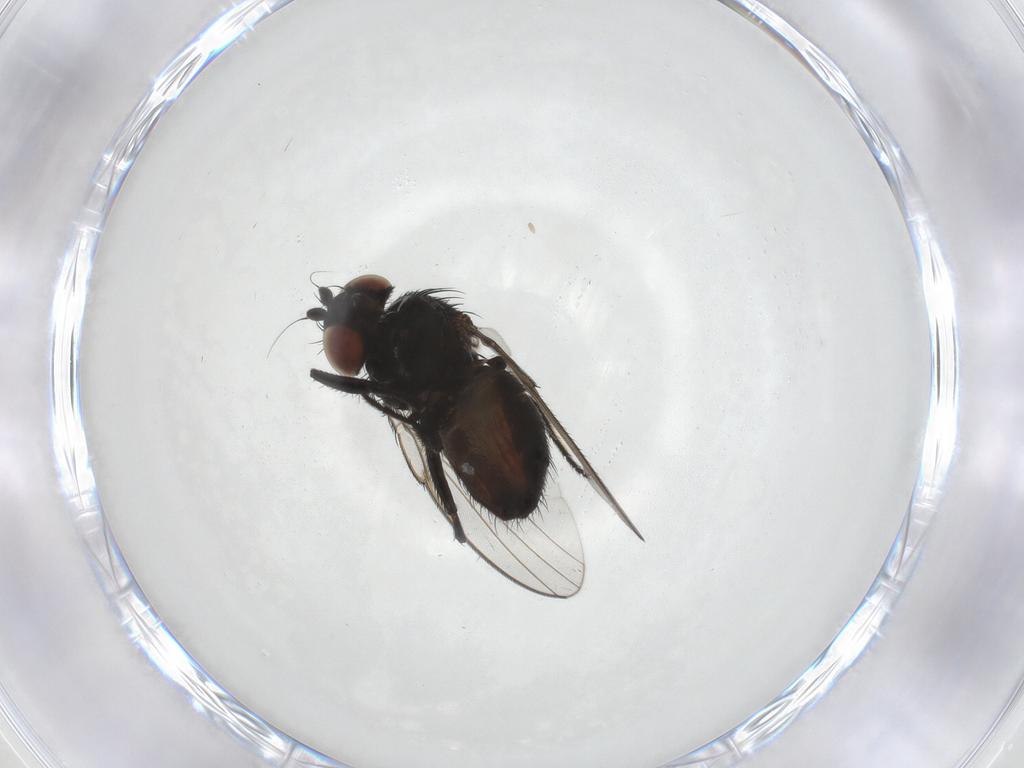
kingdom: Animalia
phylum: Arthropoda
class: Insecta
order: Diptera
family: Milichiidae
